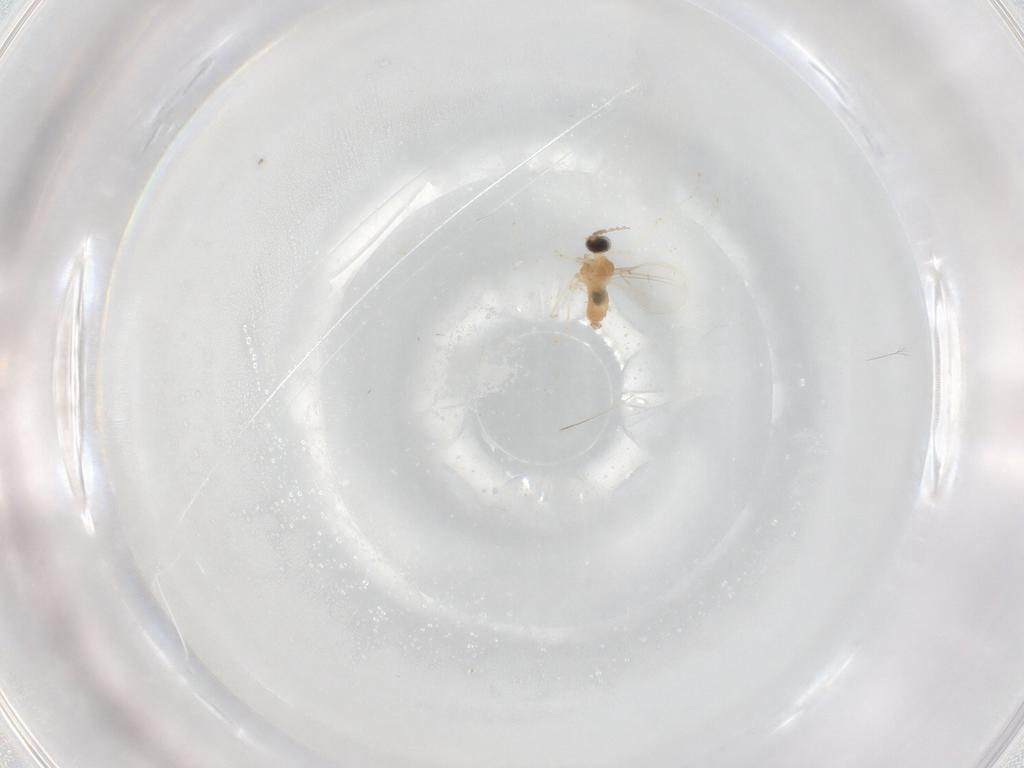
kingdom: Animalia
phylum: Arthropoda
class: Insecta
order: Diptera
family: Cecidomyiidae
